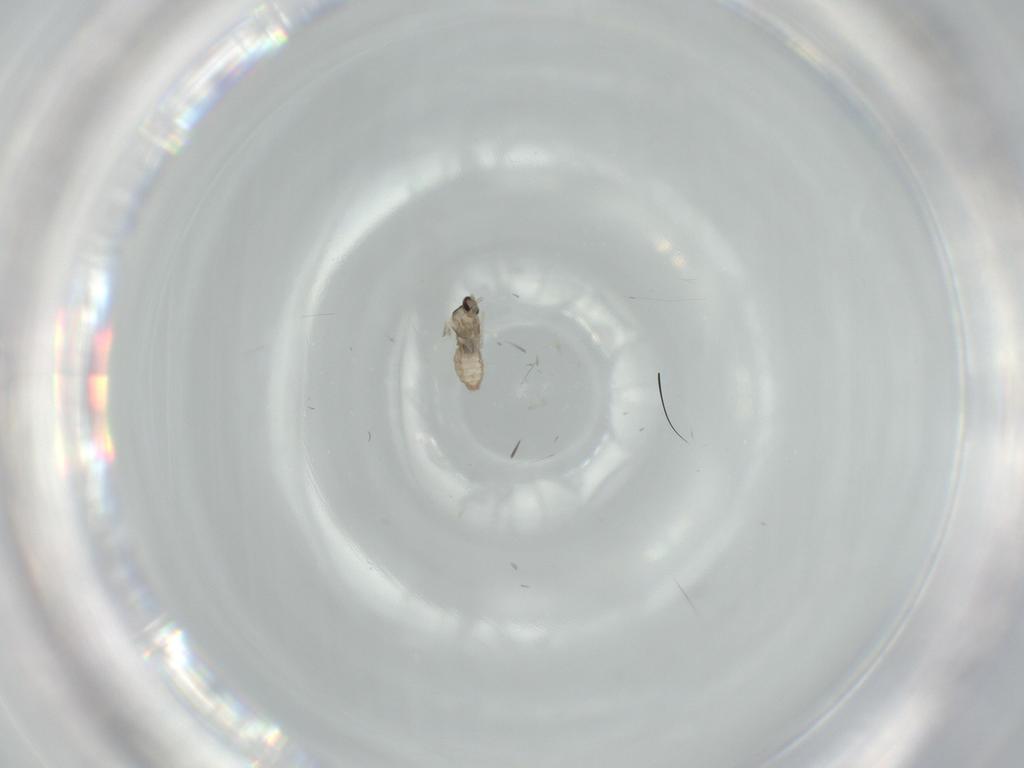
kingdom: Animalia
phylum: Arthropoda
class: Insecta
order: Diptera
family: Cecidomyiidae
